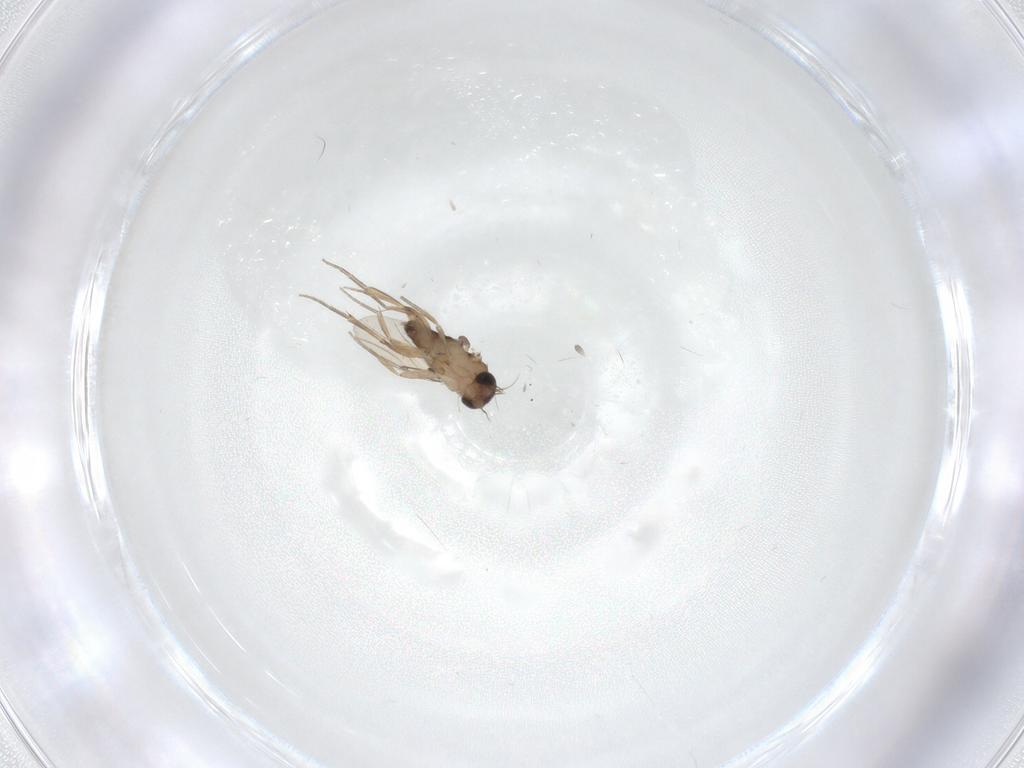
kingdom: Animalia
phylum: Arthropoda
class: Insecta
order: Diptera
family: Phoridae
